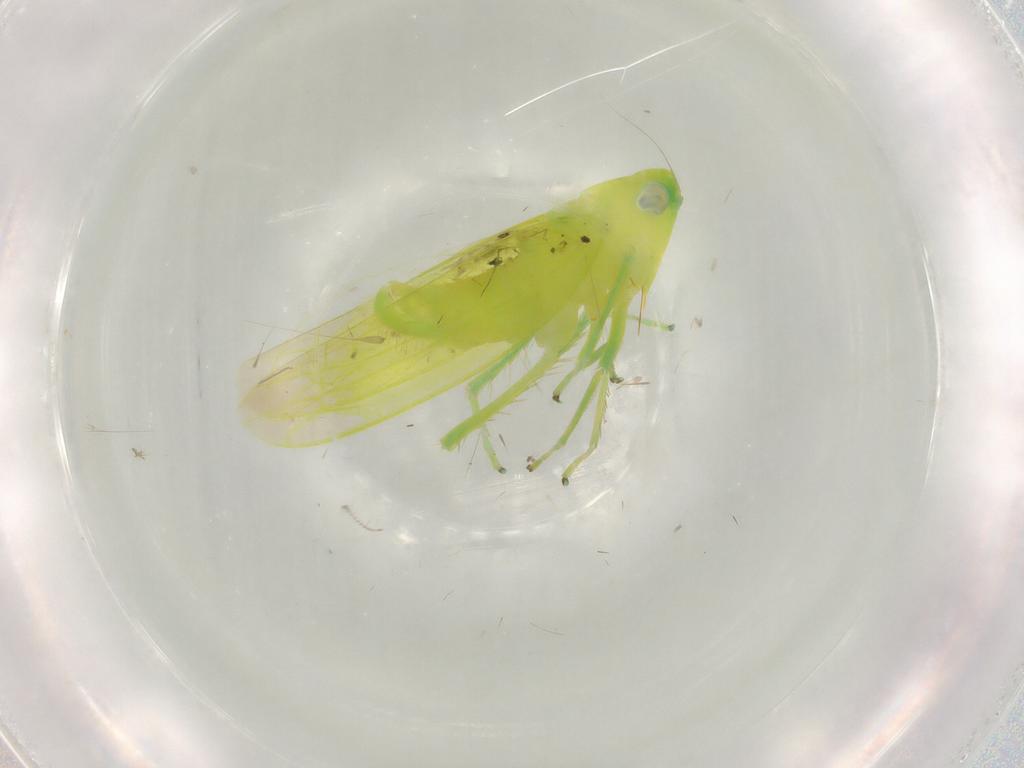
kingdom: Animalia
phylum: Arthropoda
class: Insecta
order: Hemiptera
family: Cicadellidae
